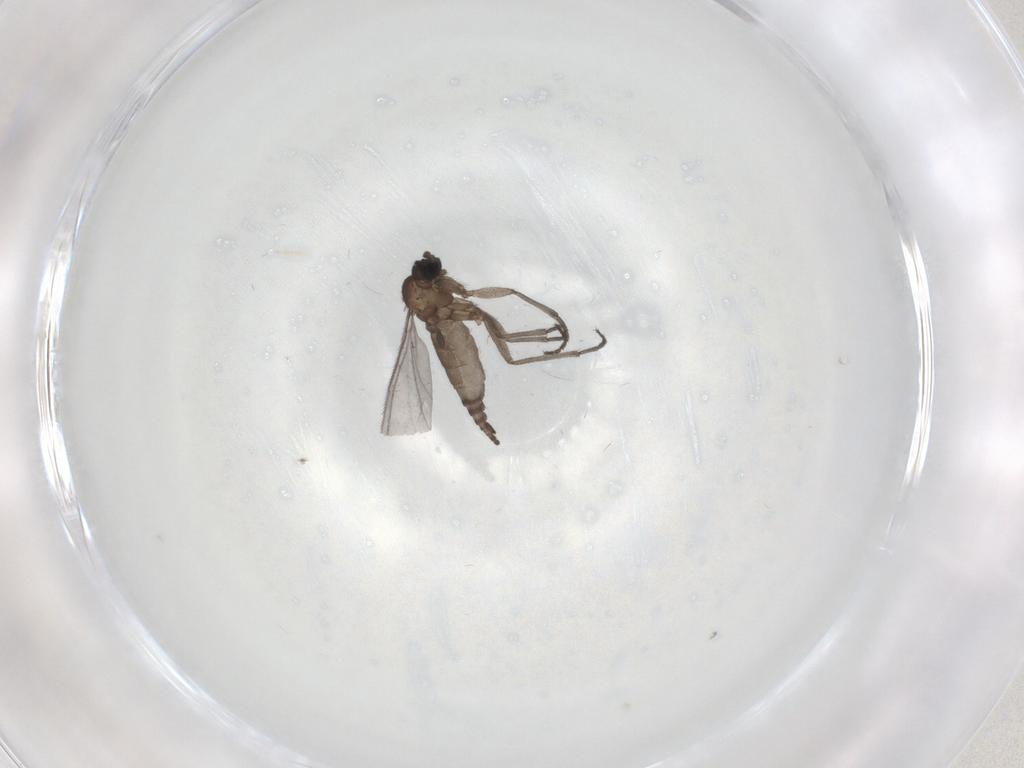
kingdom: Animalia
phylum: Arthropoda
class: Insecta
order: Diptera
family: Sciaridae
